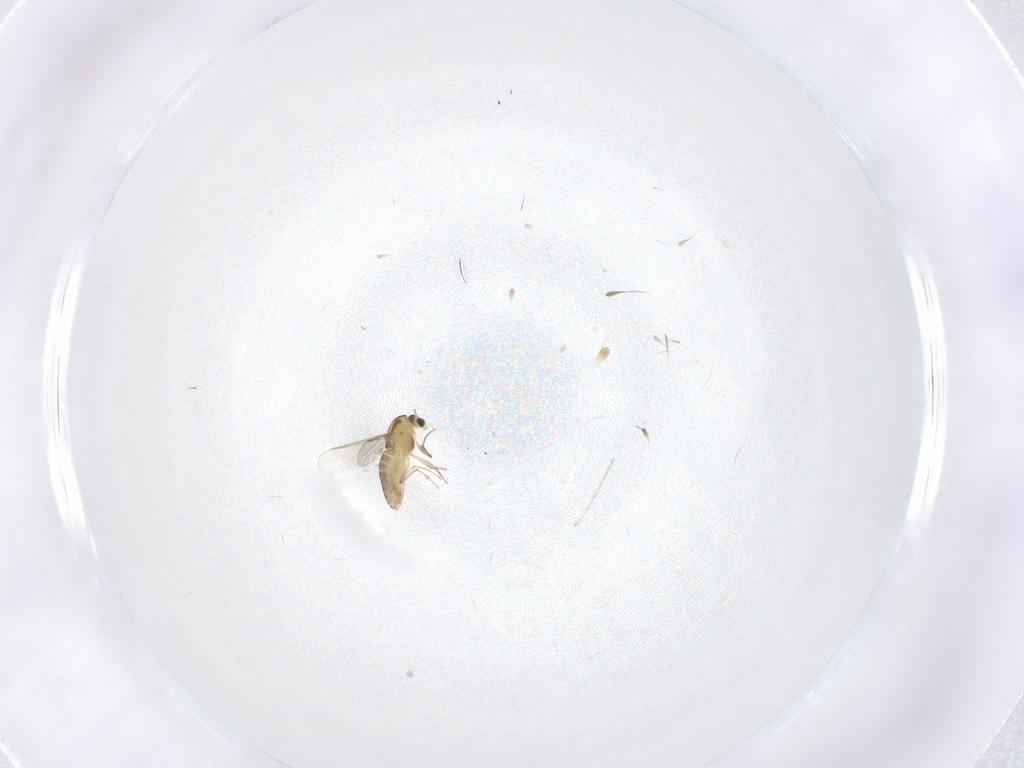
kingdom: Animalia
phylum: Arthropoda
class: Insecta
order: Diptera
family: Chironomidae
